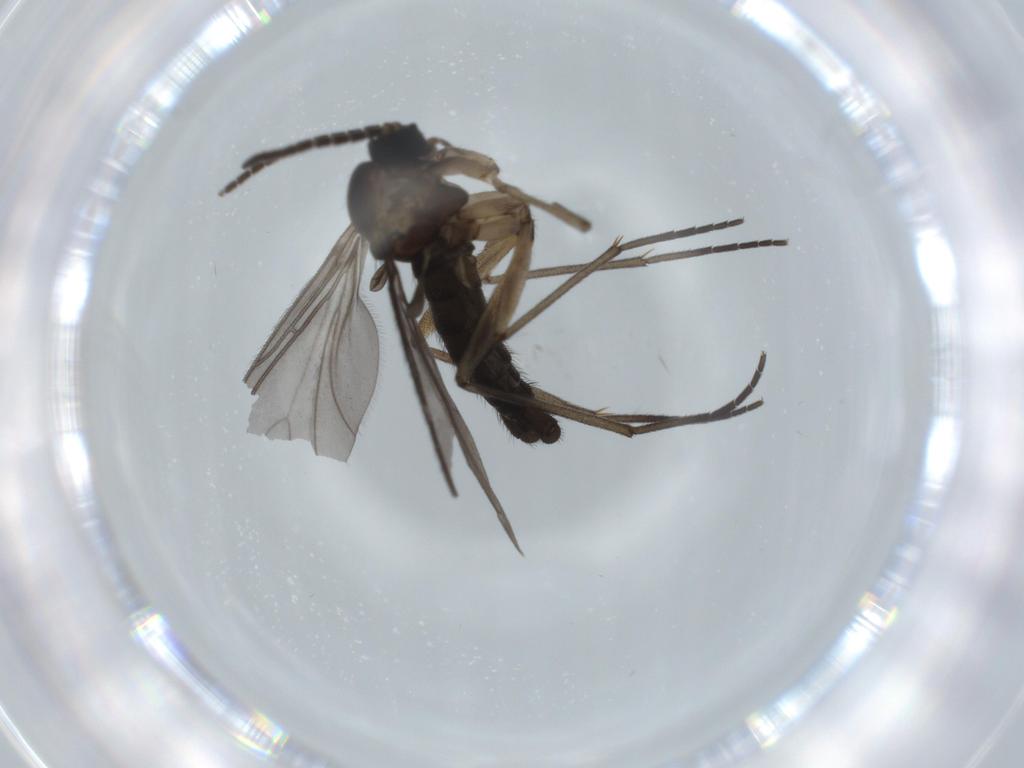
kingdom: Animalia
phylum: Arthropoda
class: Insecta
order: Diptera
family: Sciaridae
